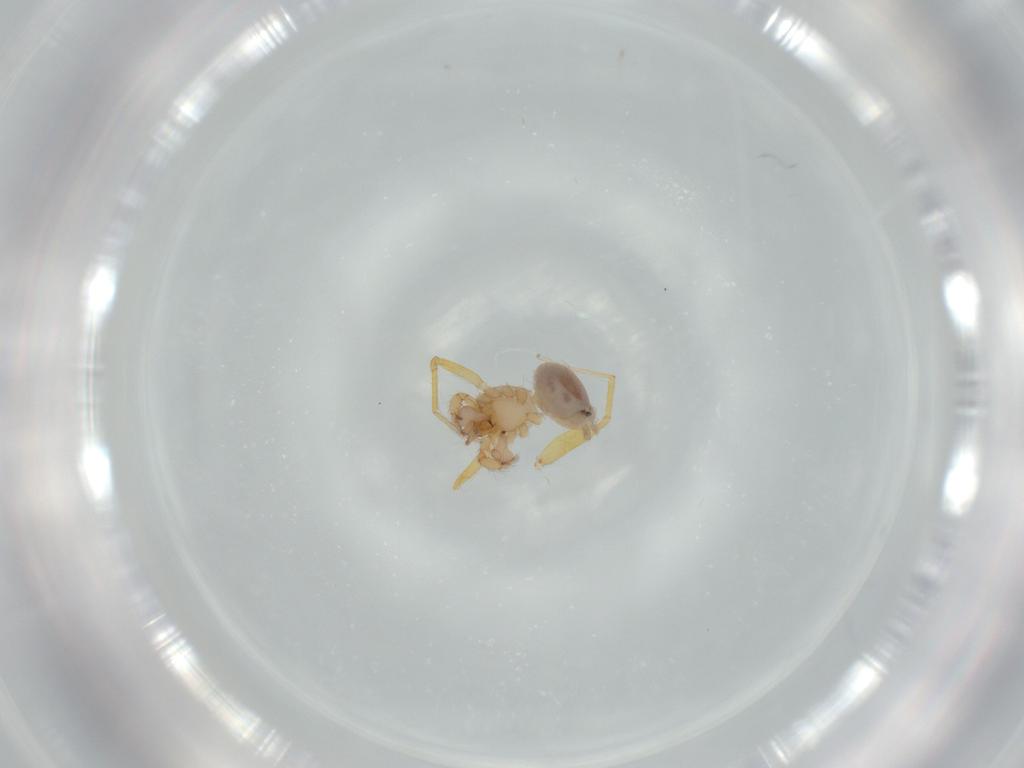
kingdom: Animalia
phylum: Arthropoda
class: Arachnida
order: Araneae
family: Oonopidae
